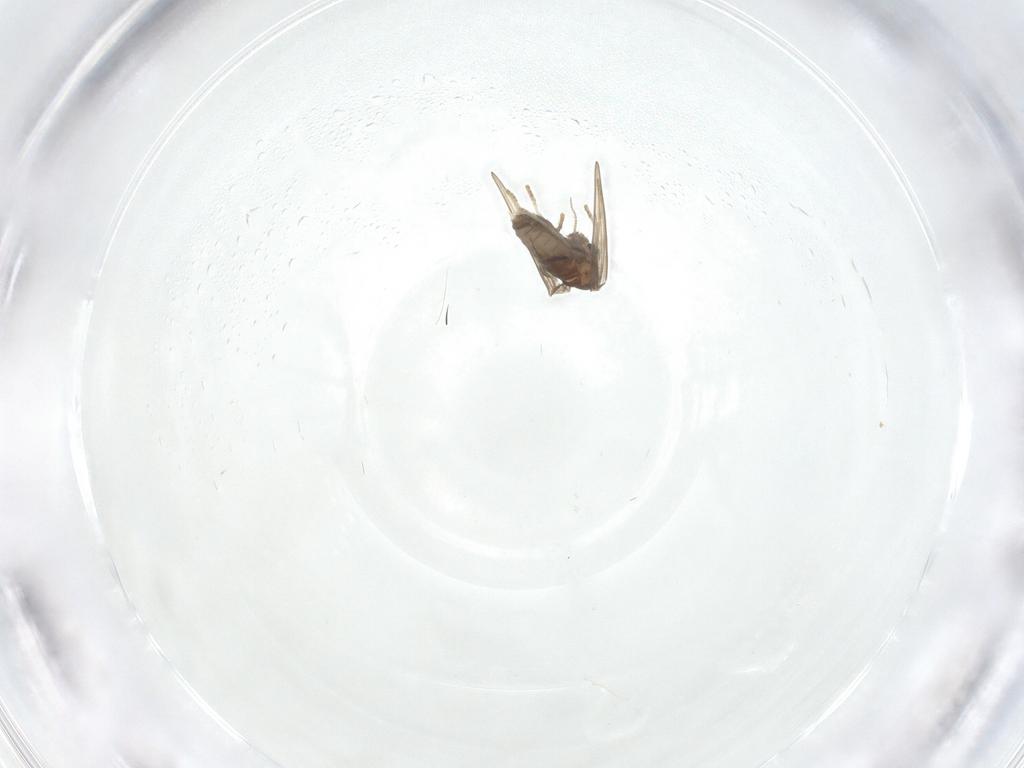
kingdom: Animalia
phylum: Arthropoda
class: Insecta
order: Diptera
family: Psychodidae
